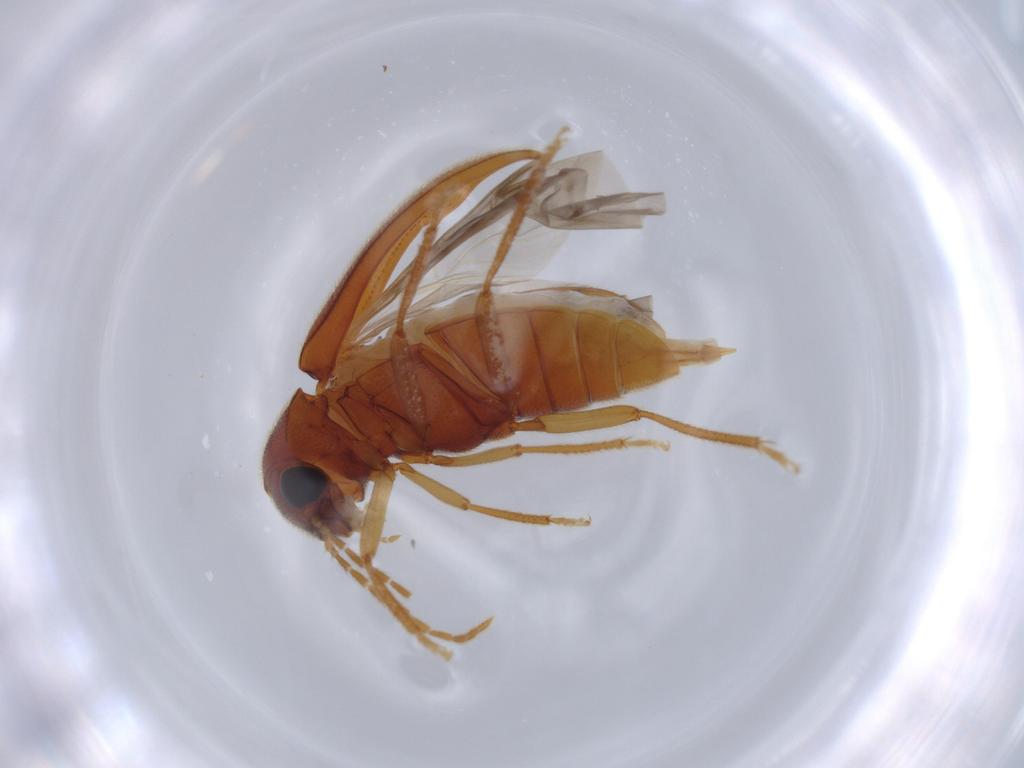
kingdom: Animalia
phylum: Arthropoda
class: Insecta
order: Coleoptera
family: Ptilodactylidae
